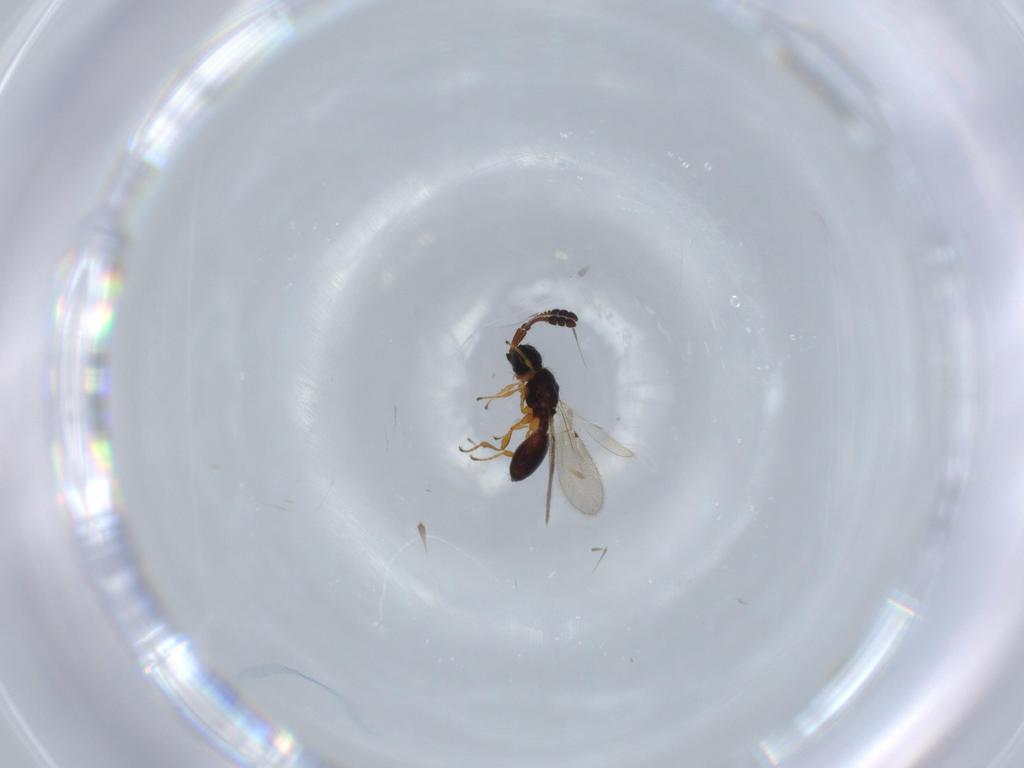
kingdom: Animalia
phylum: Arthropoda
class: Insecta
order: Hymenoptera
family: Diapriidae
